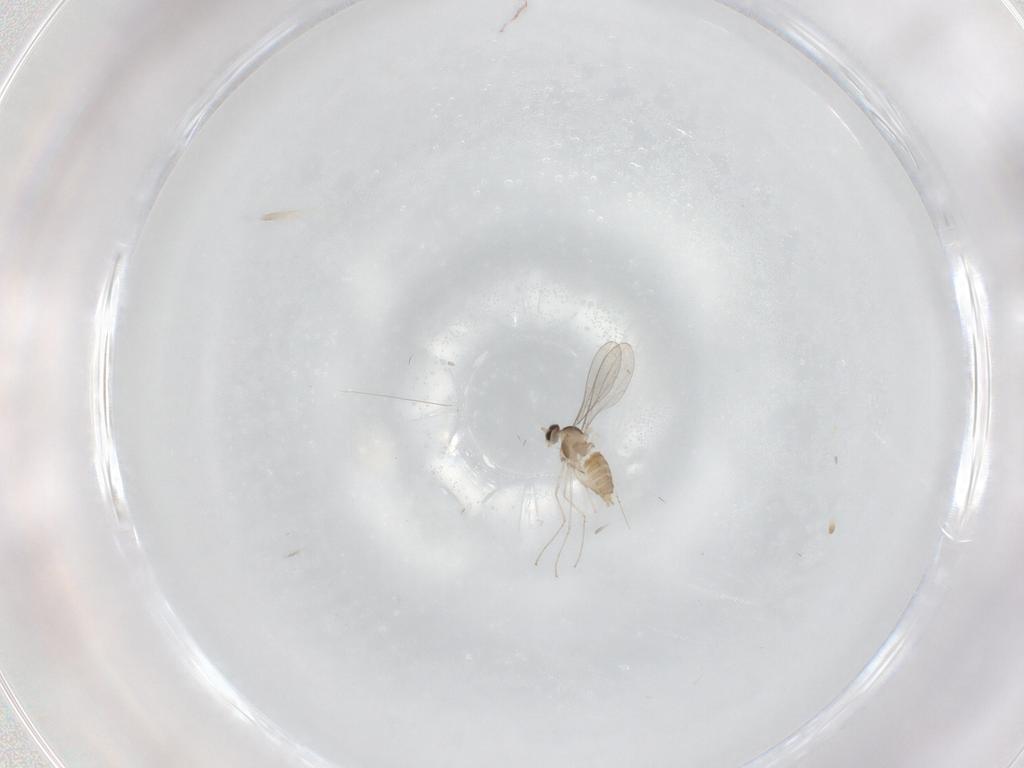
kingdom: Animalia
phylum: Arthropoda
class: Insecta
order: Diptera
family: Cecidomyiidae
